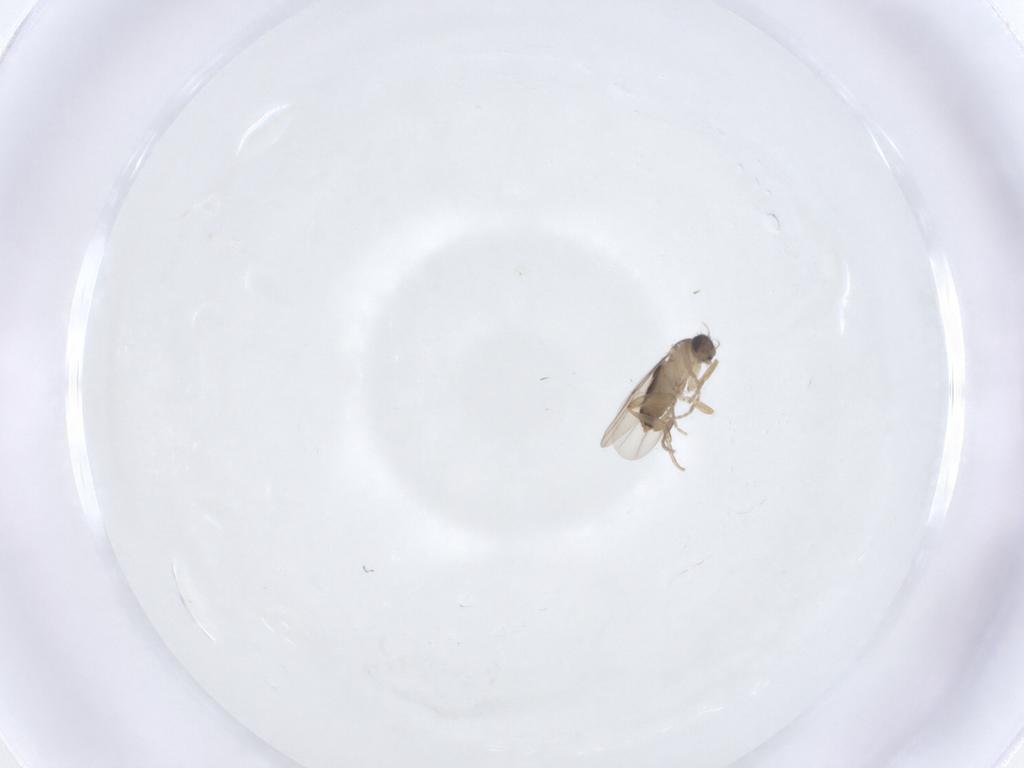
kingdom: Animalia
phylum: Arthropoda
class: Insecta
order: Diptera
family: Phoridae
